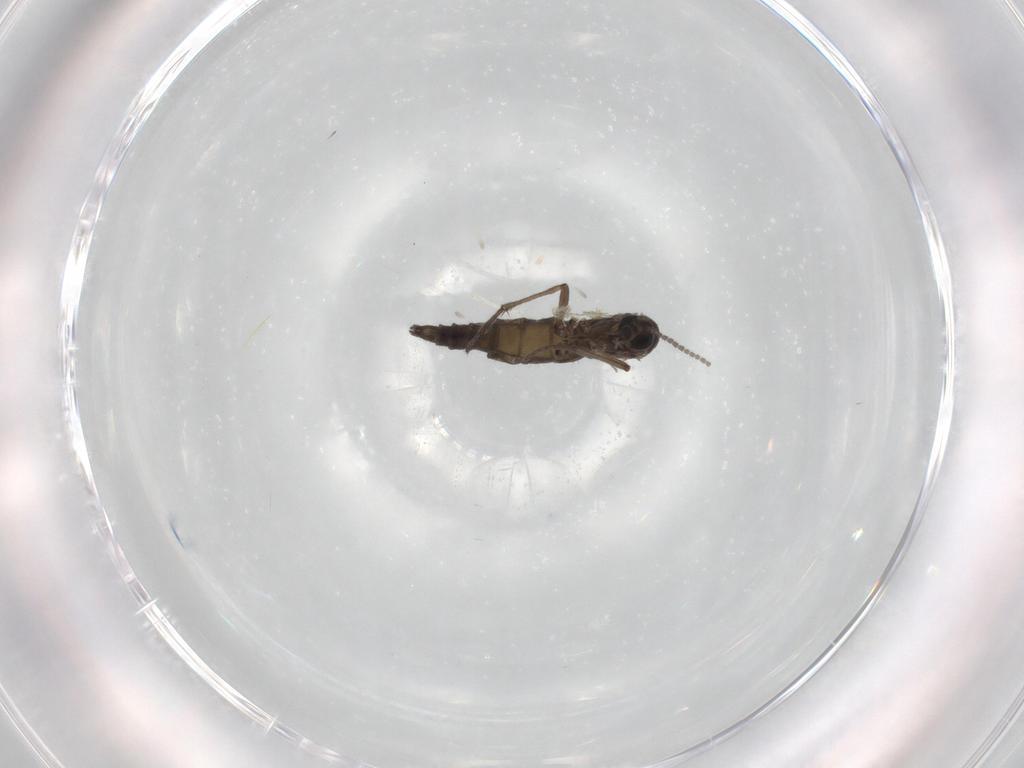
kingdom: Animalia
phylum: Arthropoda
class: Insecta
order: Diptera
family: Sciaridae
